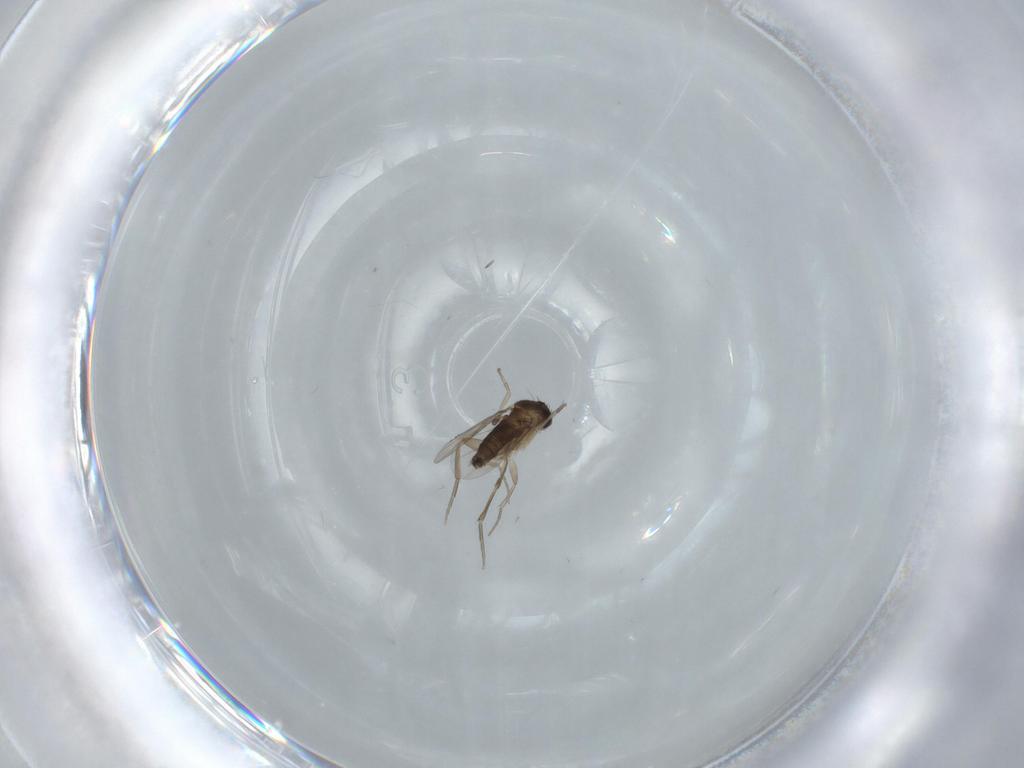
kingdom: Animalia
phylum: Arthropoda
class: Insecta
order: Diptera
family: Phoridae
